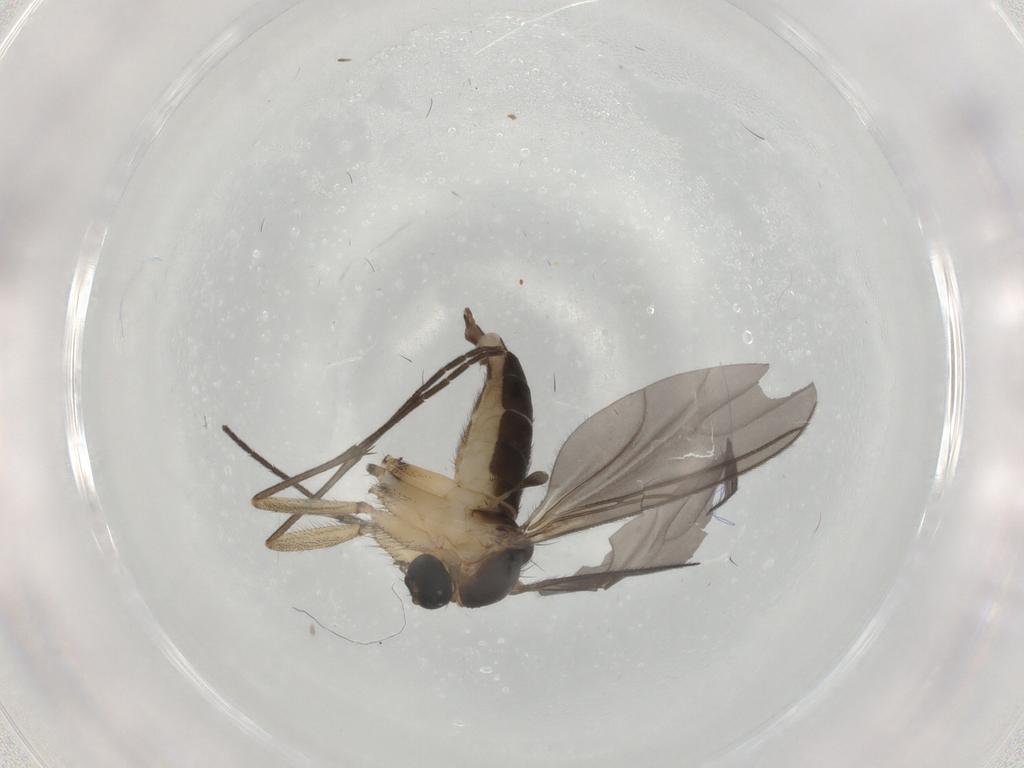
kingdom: Animalia
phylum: Arthropoda
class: Insecta
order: Diptera
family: Sciaridae
